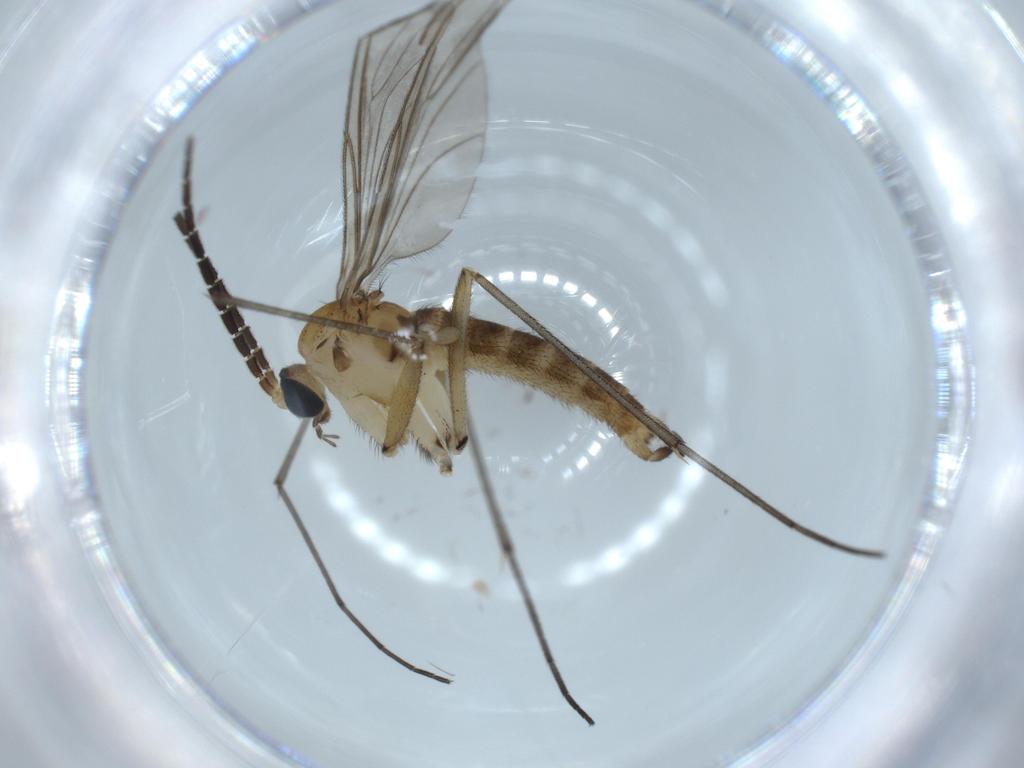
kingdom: Animalia
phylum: Arthropoda
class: Insecta
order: Diptera
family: Sciaridae
